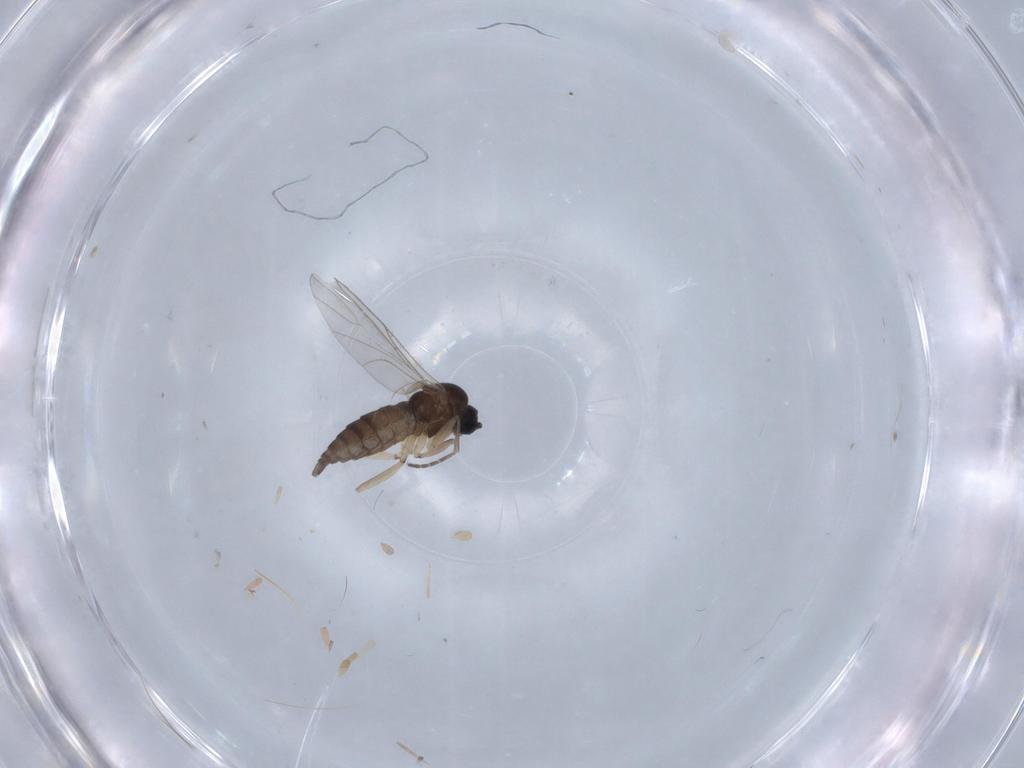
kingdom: Animalia
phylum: Arthropoda
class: Insecta
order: Diptera
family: Sciaridae
